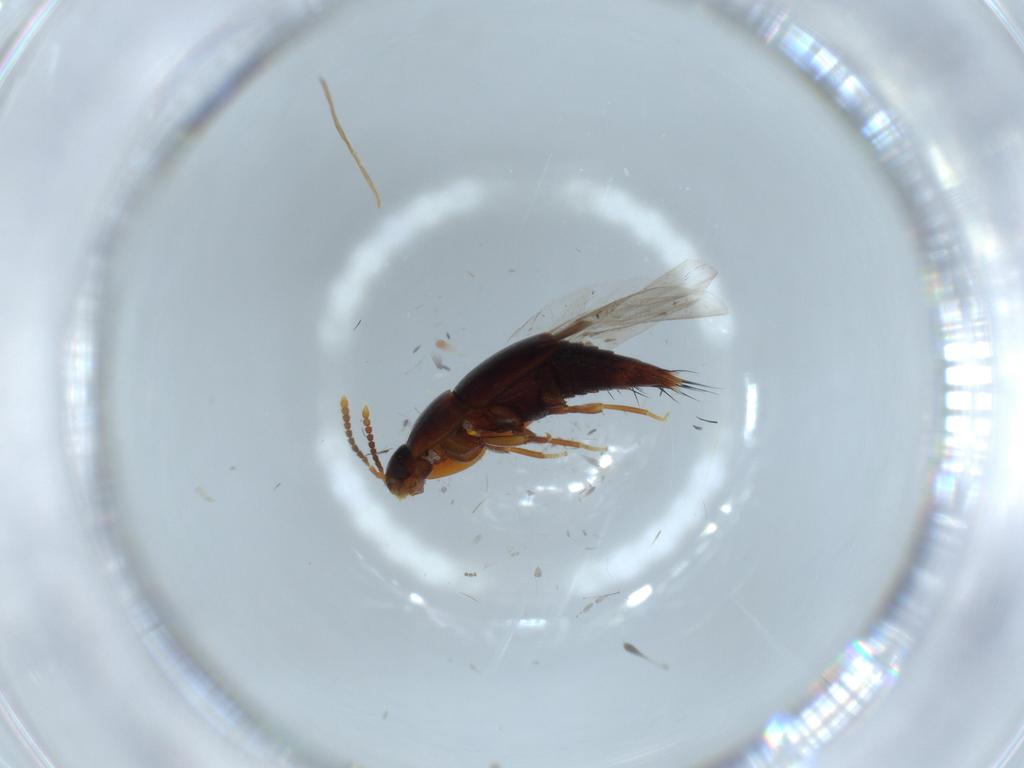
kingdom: Animalia
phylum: Arthropoda
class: Insecta
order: Coleoptera
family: Staphylinidae
